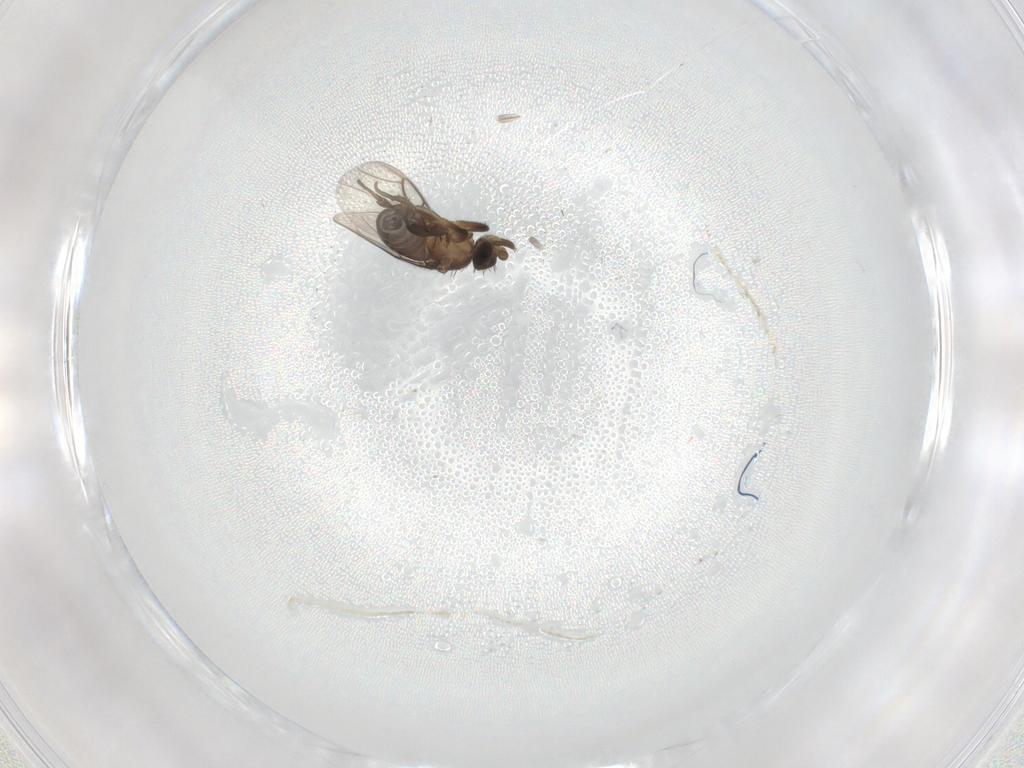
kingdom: Animalia
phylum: Arthropoda
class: Insecta
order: Diptera
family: Phoridae
